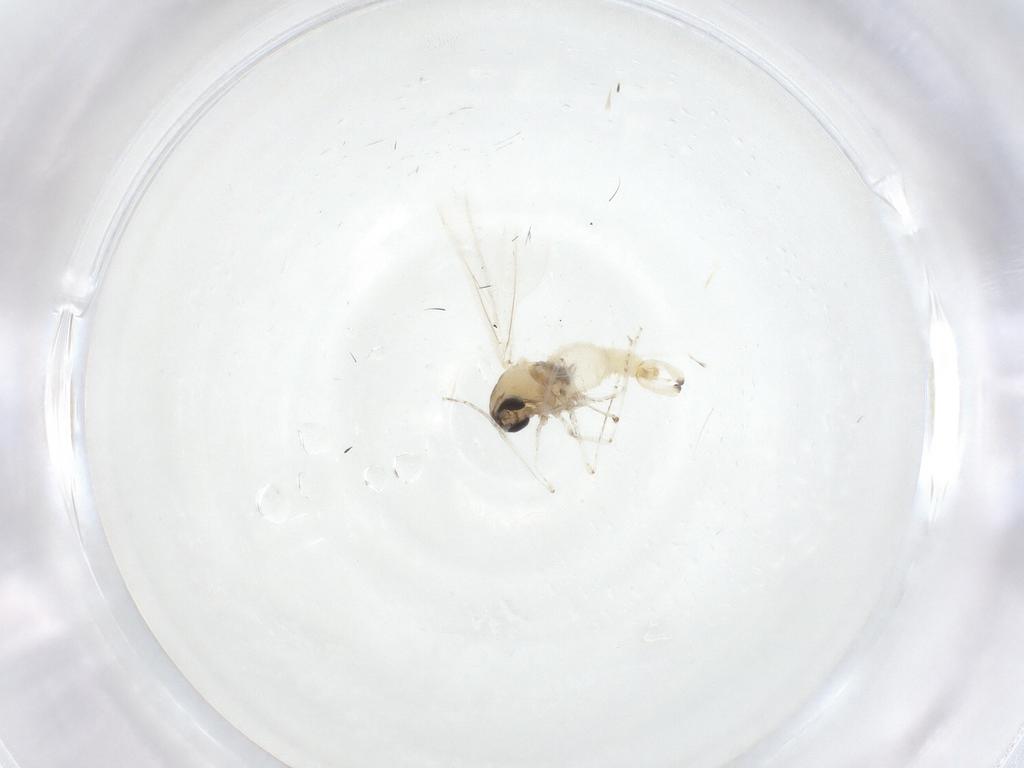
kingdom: Animalia
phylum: Arthropoda
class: Insecta
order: Diptera
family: Cecidomyiidae
